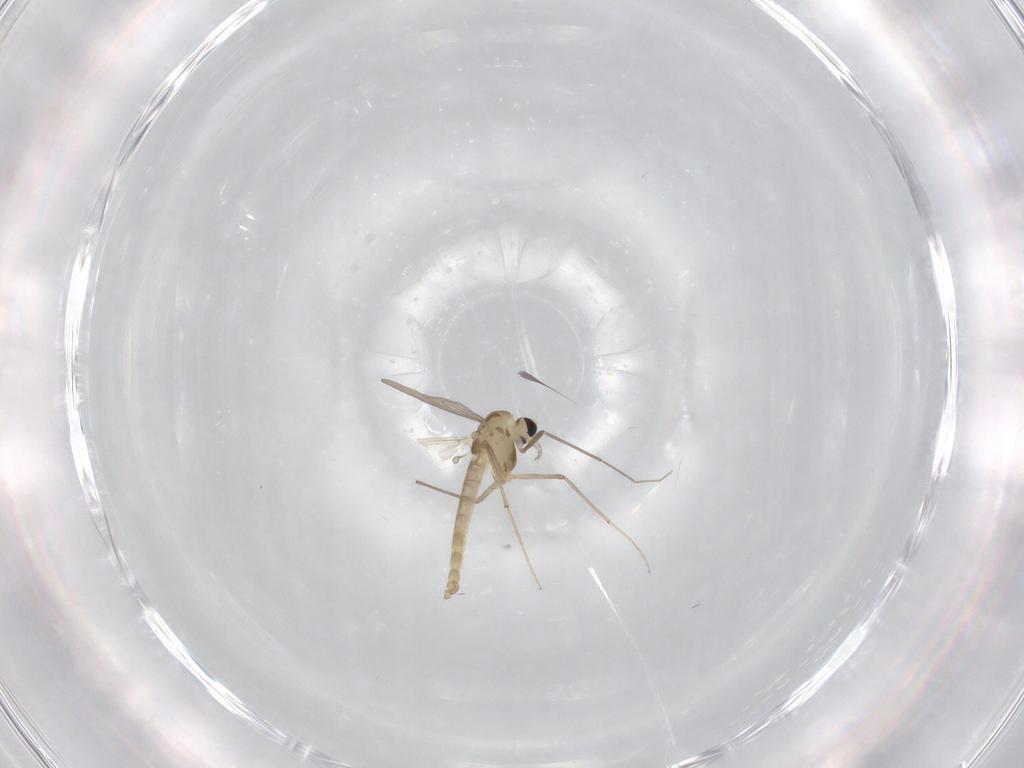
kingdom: Animalia
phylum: Arthropoda
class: Insecta
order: Diptera
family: Chironomidae
